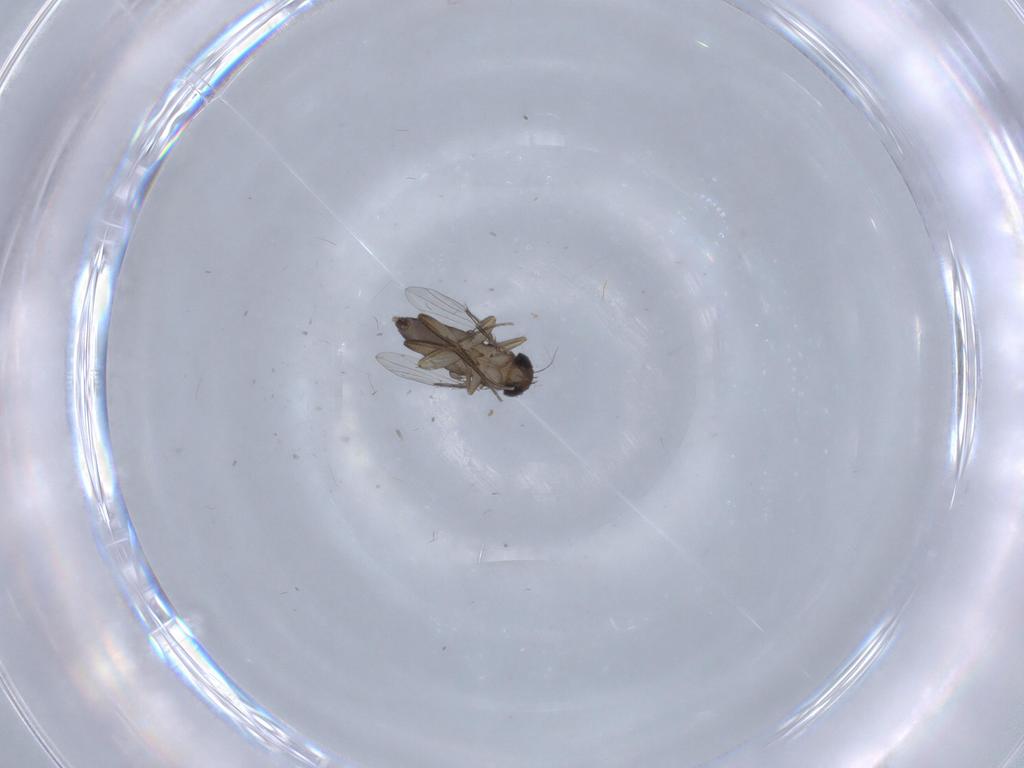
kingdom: Animalia
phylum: Arthropoda
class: Insecta
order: Diptera
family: Phoridae
